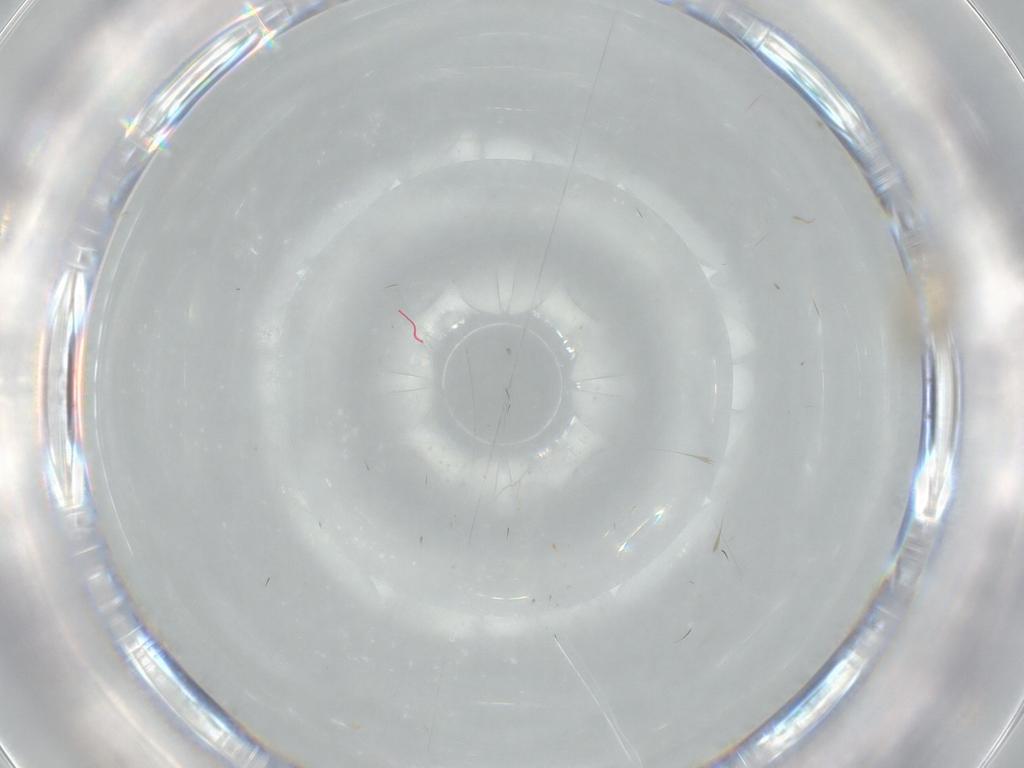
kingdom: Animalia
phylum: Arthropoda
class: Insecta
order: Diptera
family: Cecidomyiidae
